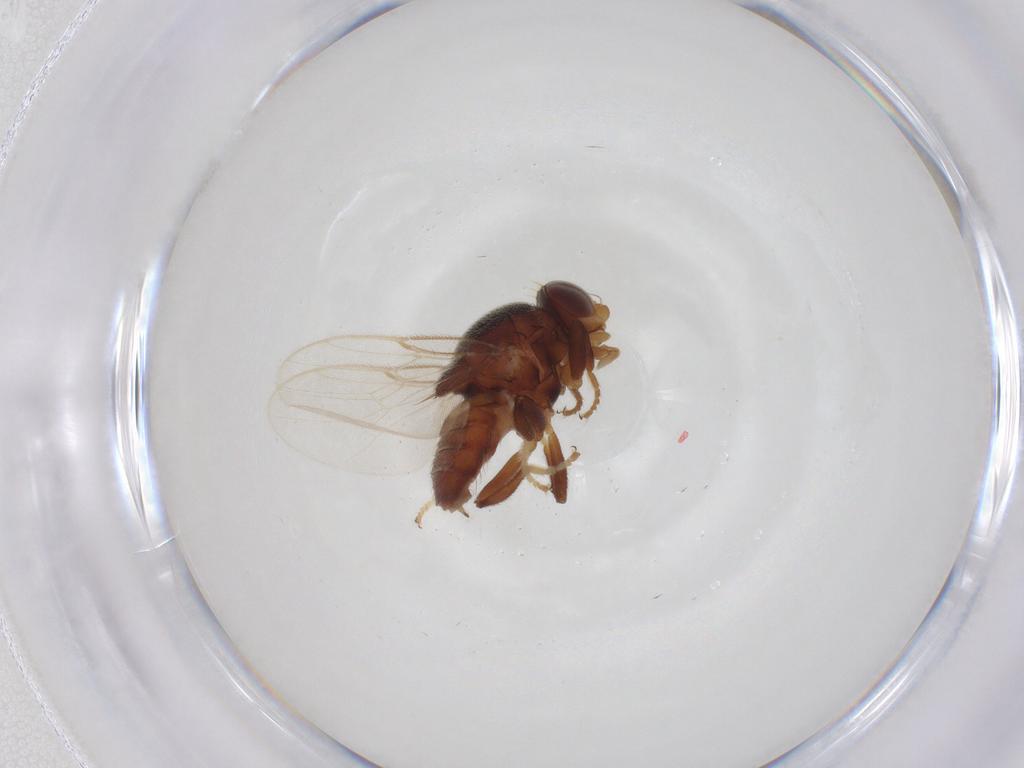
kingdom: Animalia
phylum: Arthropoda
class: Insecta
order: Diptera
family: Chloropidae
